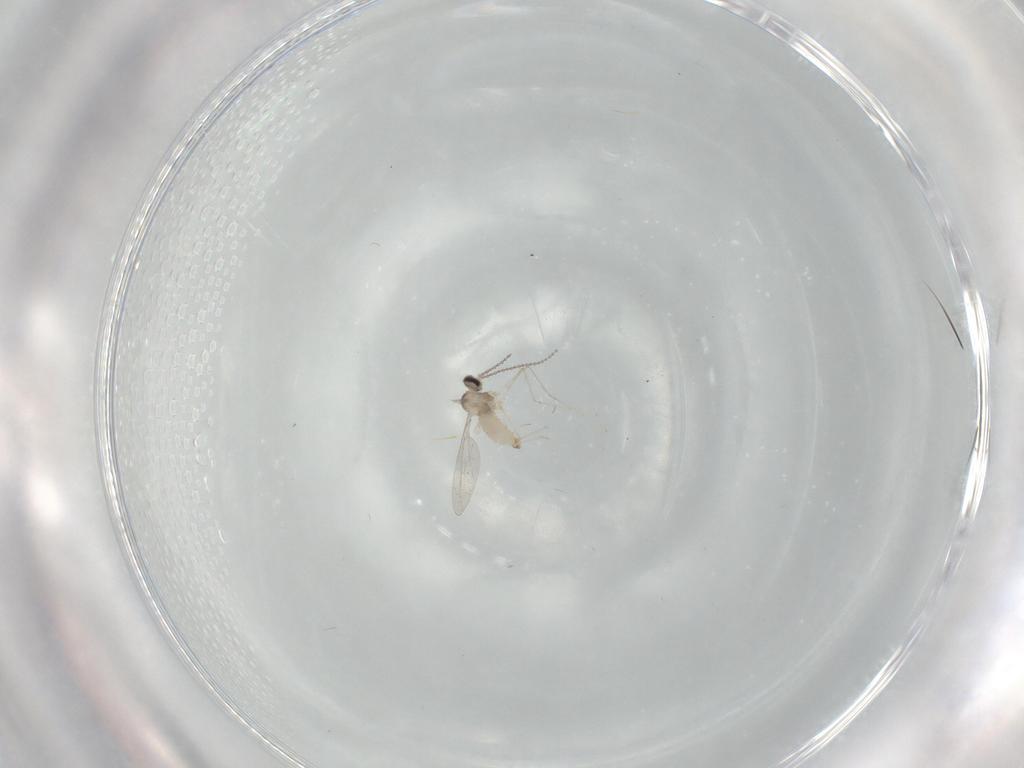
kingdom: Animalia
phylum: Arthropoda
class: Insecta
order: Diptera
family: Cecidomyiidae
